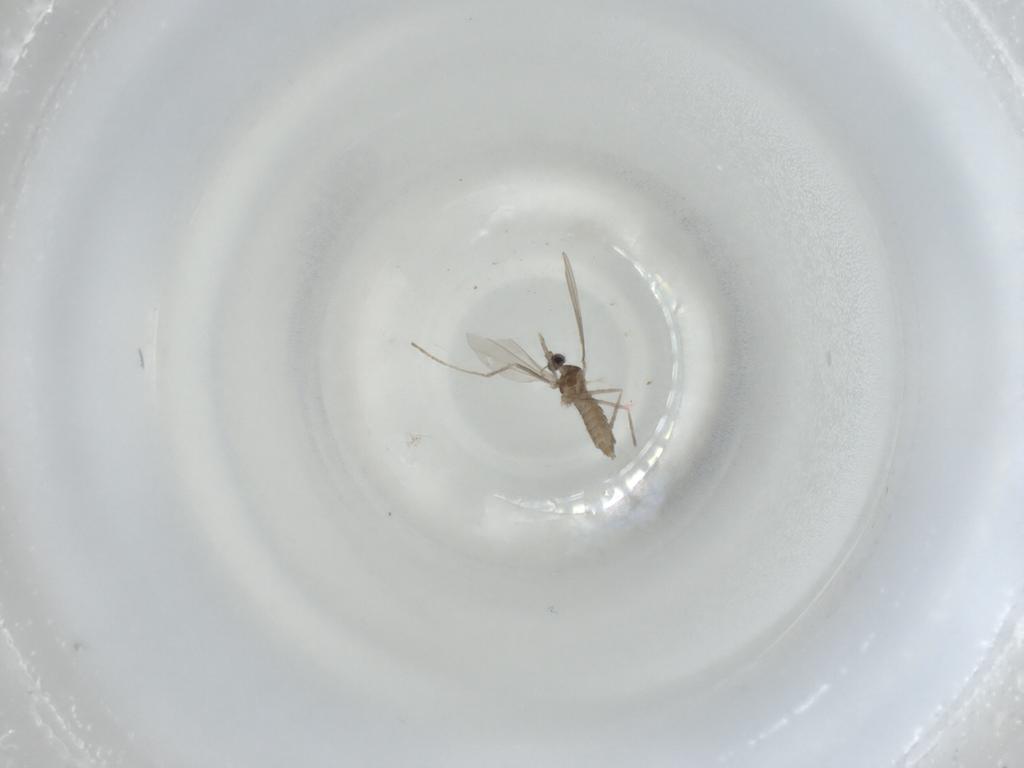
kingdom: Animalia
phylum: Arthropoda
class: Insecta
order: Diptera
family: Cecidomyiidae
